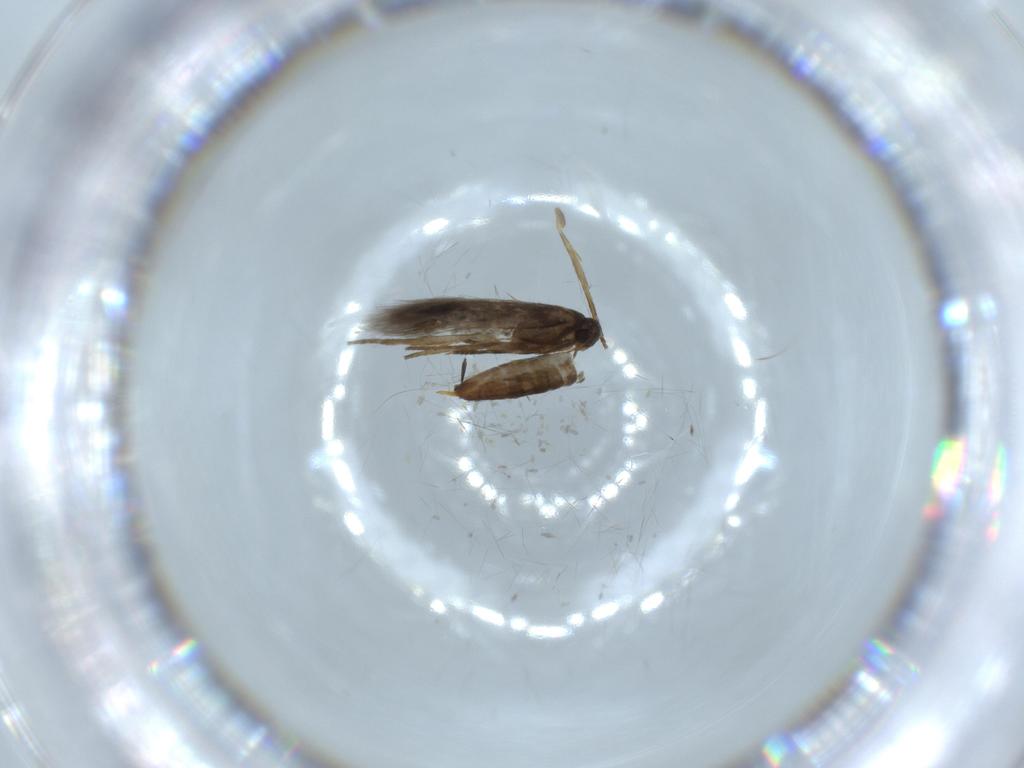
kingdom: Animalia
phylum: Arthropoda
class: Insecta
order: Lepidoptera
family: Heliozelidae
